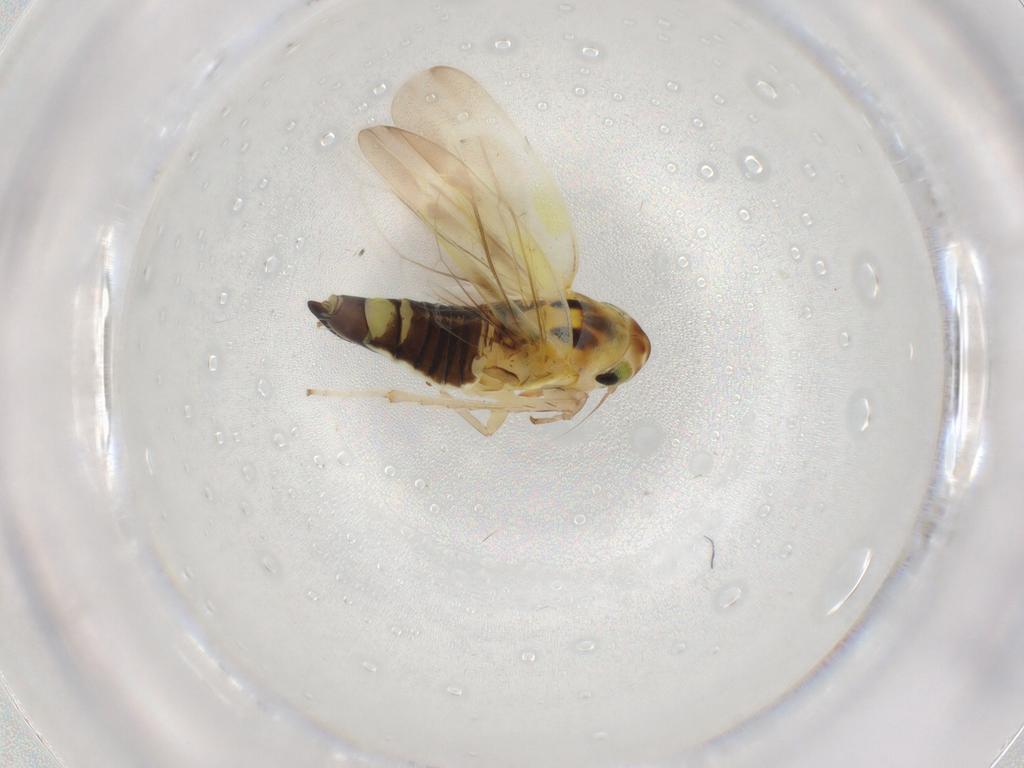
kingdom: Animalia
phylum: Arthropoda
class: Insecta
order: Hemiptera
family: Cicadellidae
